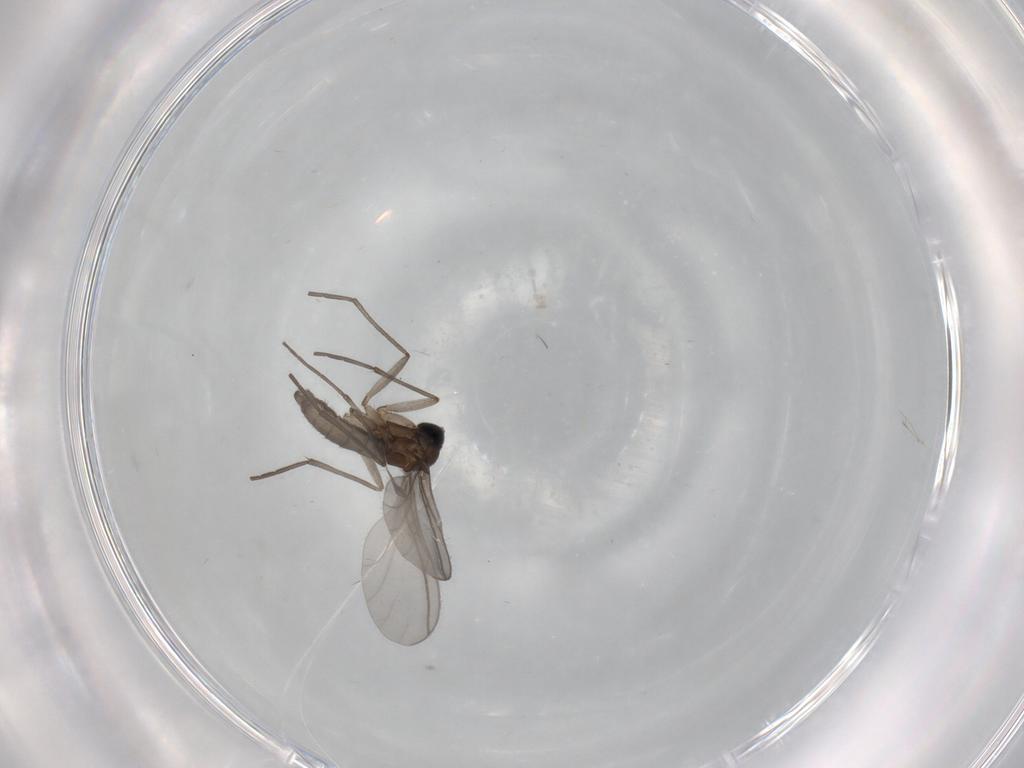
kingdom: Animalia
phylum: Arthropoda
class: Insecta
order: Diptera
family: Sciaridae
